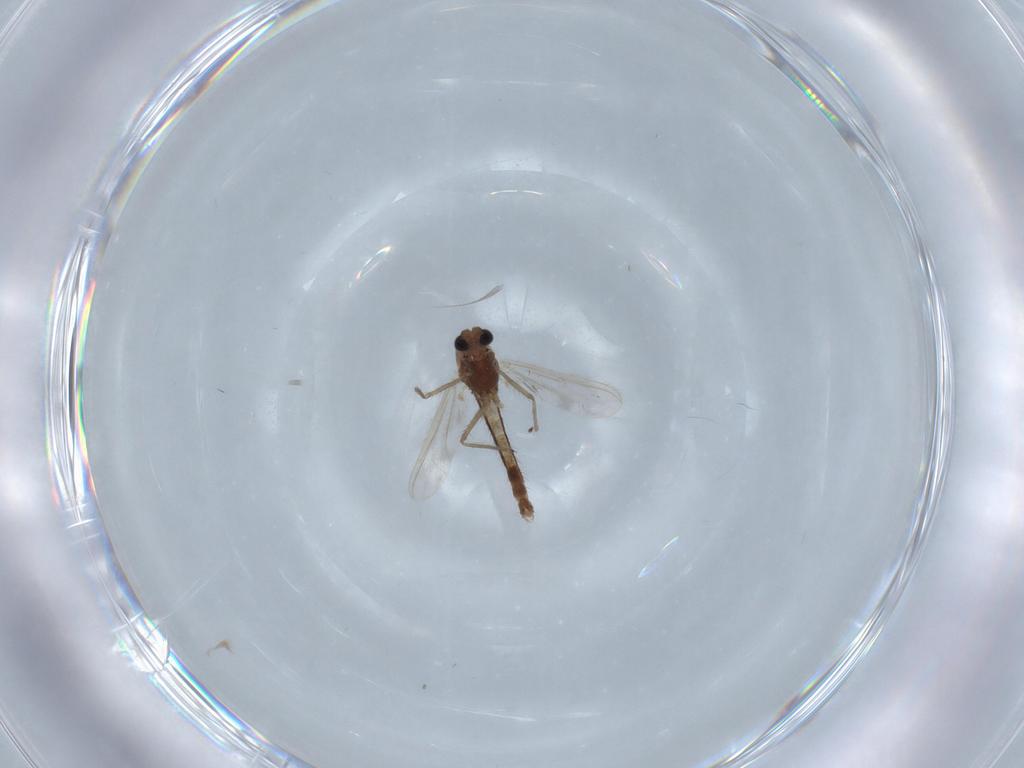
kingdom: Animalia
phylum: Arthropoda
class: Insecta
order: Diptera
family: Chironomidae
